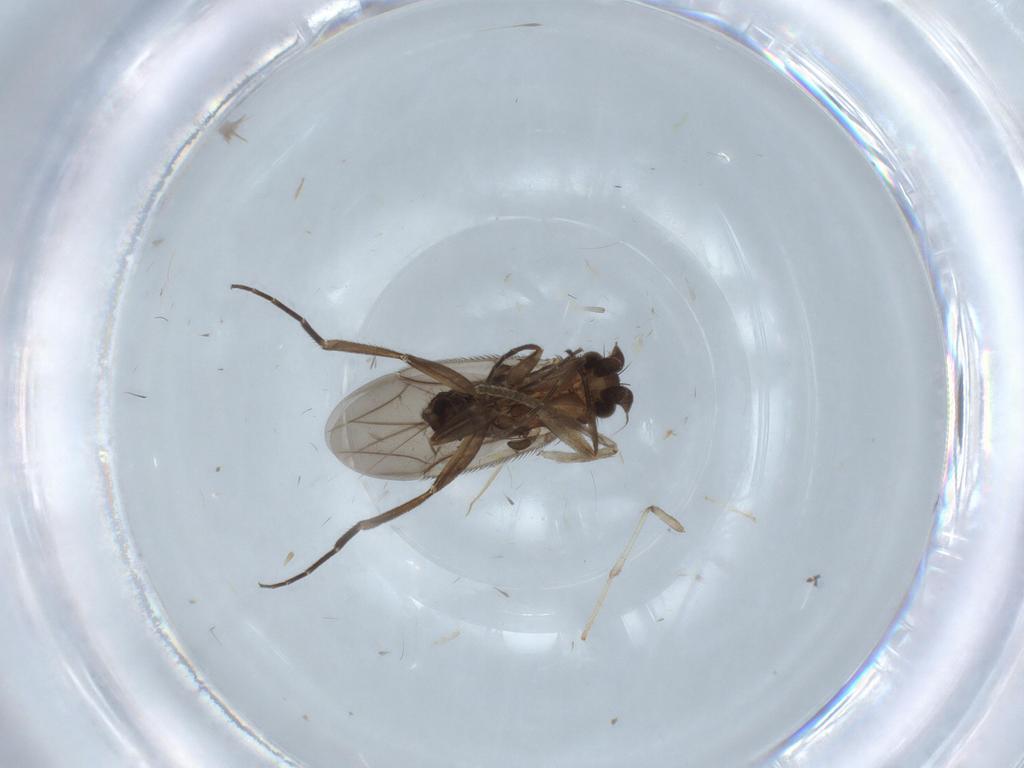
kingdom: Animalia
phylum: Arthropoda
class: Insecta
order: Diptera
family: Phoridae
